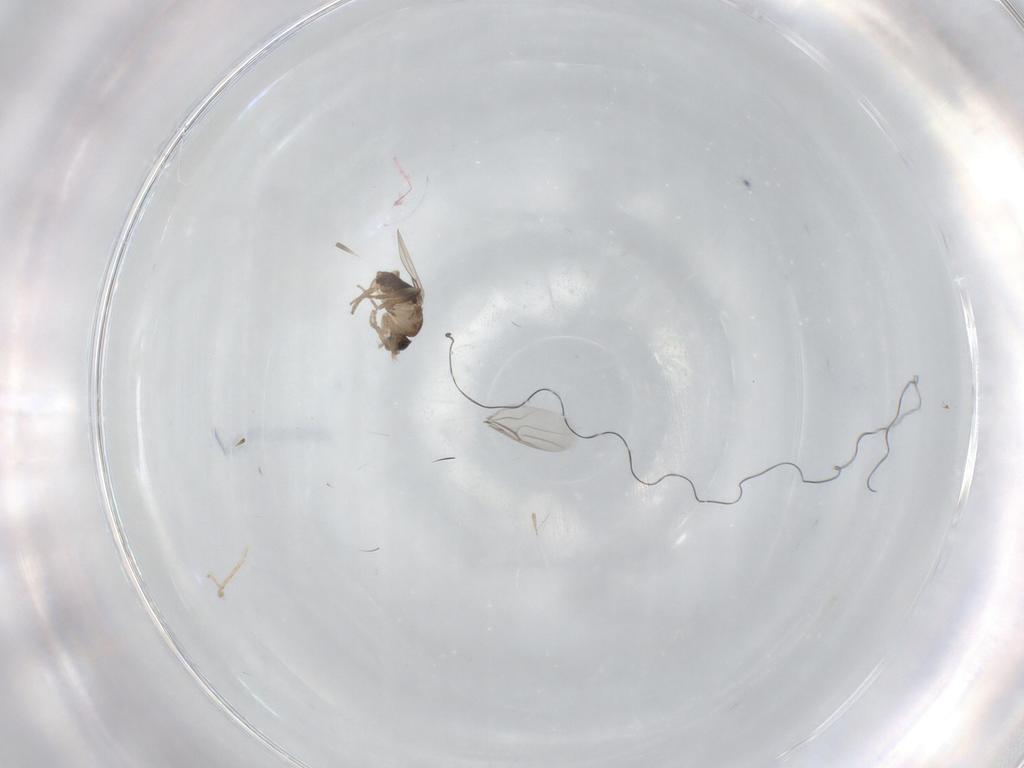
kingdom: Animalia
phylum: Arthropoda
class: Insecta
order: Diptera
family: Phoridae
